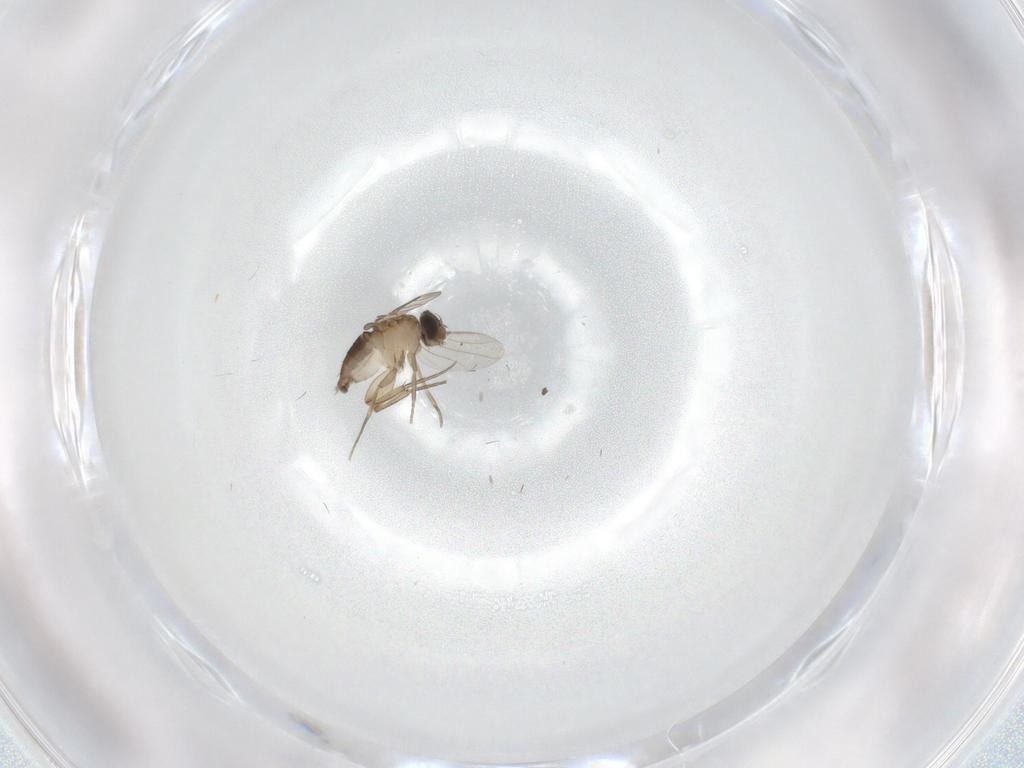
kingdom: Animalia
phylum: Arthropoda
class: Insecta
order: Diptera
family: Phoridae
